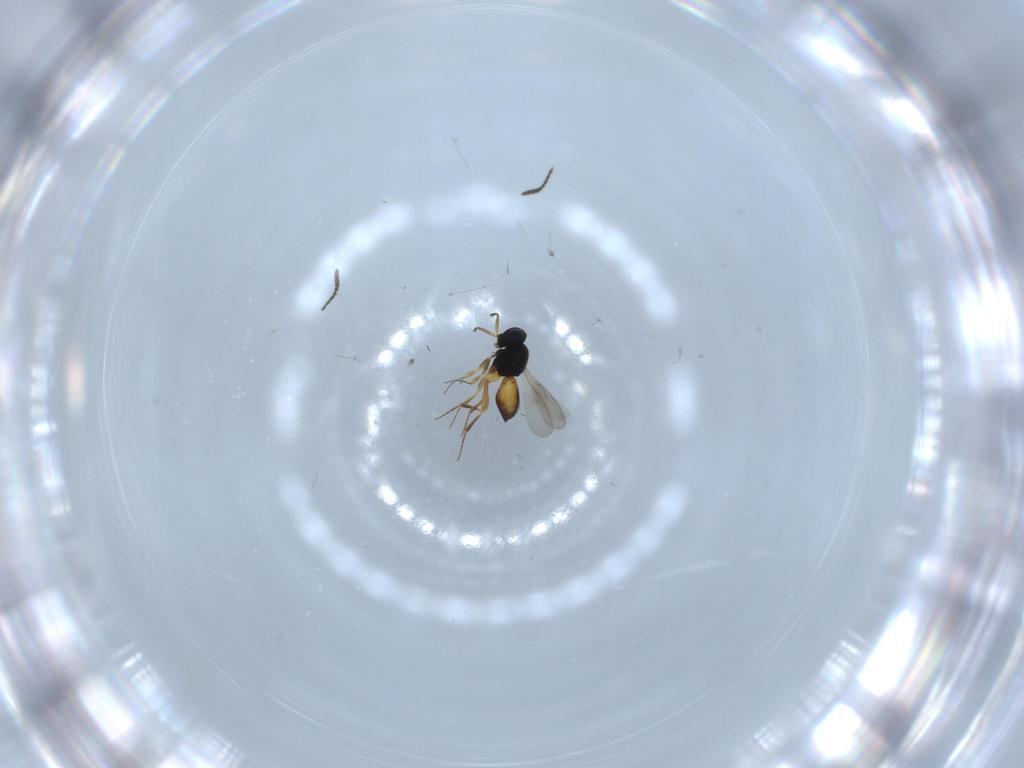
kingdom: Animalia
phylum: Arthropoda
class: Insecta
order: Hymenoptera
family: Scelionidae
